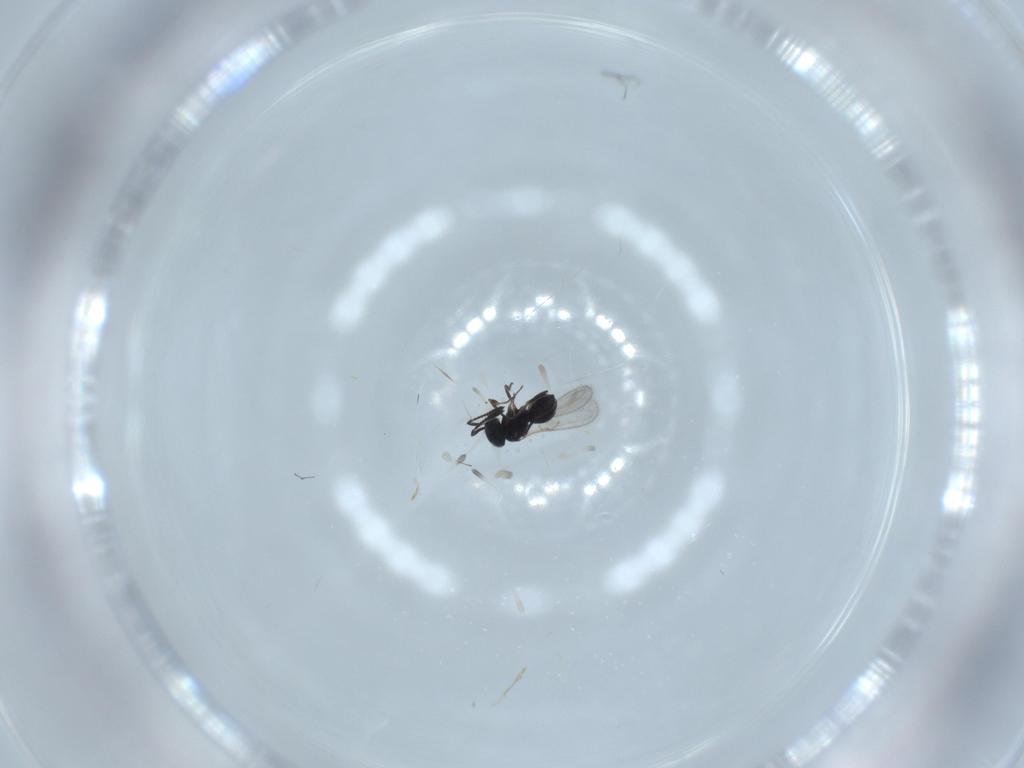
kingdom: Animalia
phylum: Arthropoda
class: Insecta
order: Hymenoptera
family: Scelionidae
